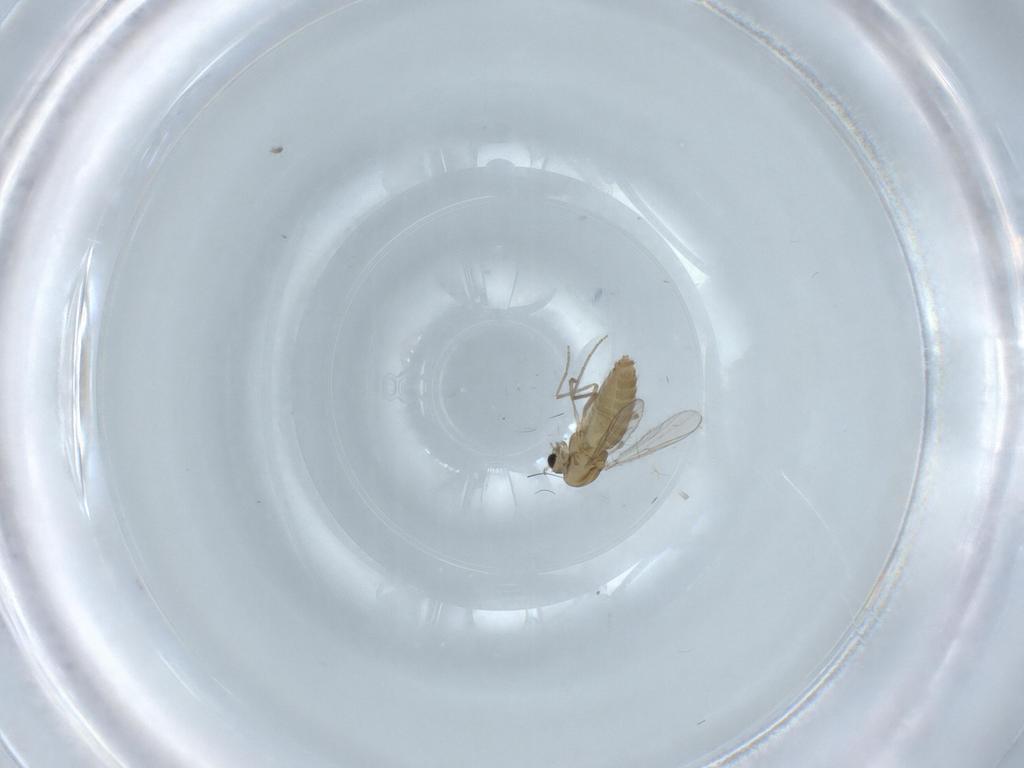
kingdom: Animalia
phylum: Arthropoda
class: Insecta
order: Diptera
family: Chironomidae
